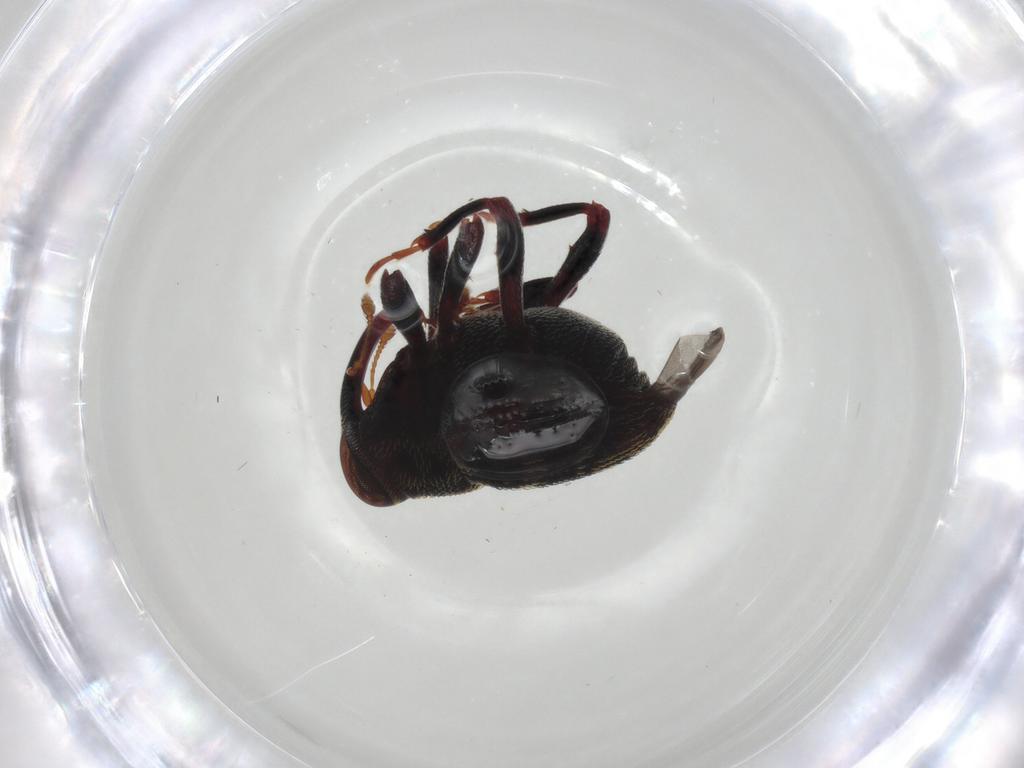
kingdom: Animalia
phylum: Arthropoda
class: Insecta
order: Coleoptera
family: Curculionidae
